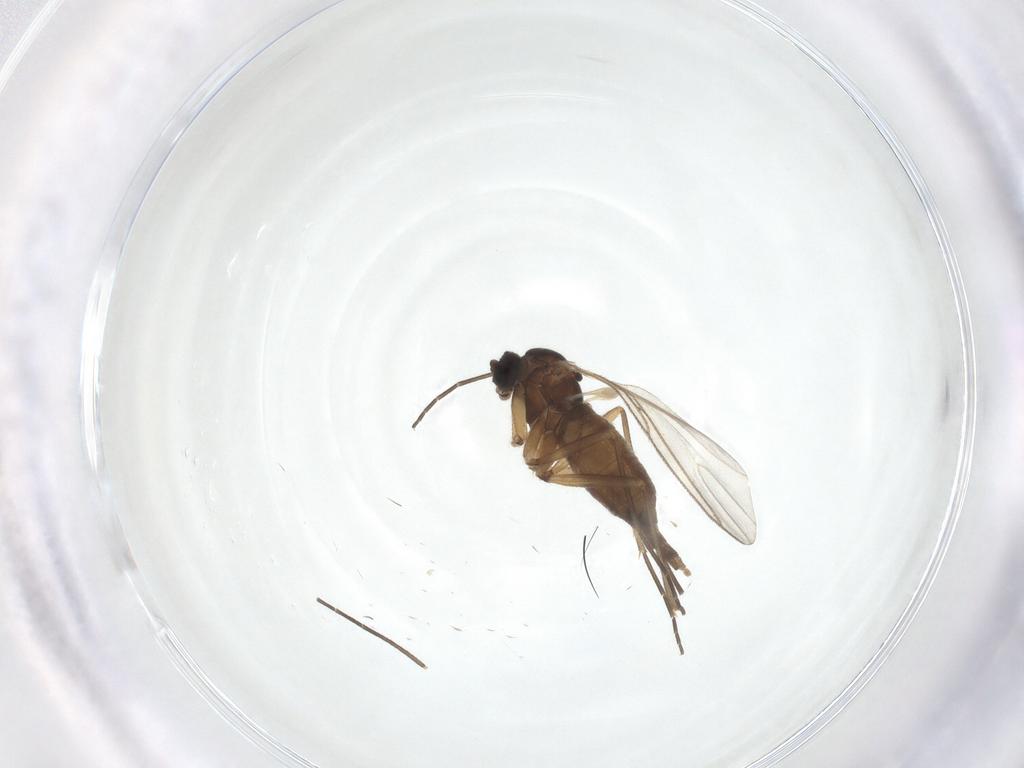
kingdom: Animalia
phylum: Arthropoda
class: Insecta
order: Diptera
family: Sciaridae
